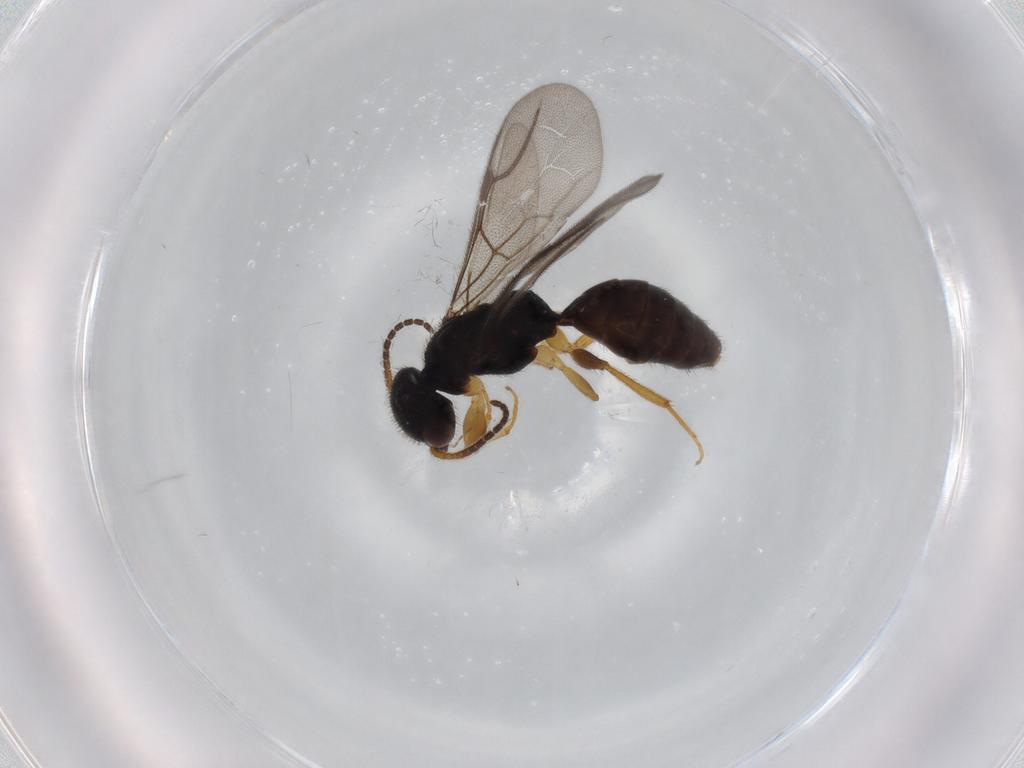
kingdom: Animalia
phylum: Arthropoda
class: Insecta
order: Hymenoptera
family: Bethylidae
